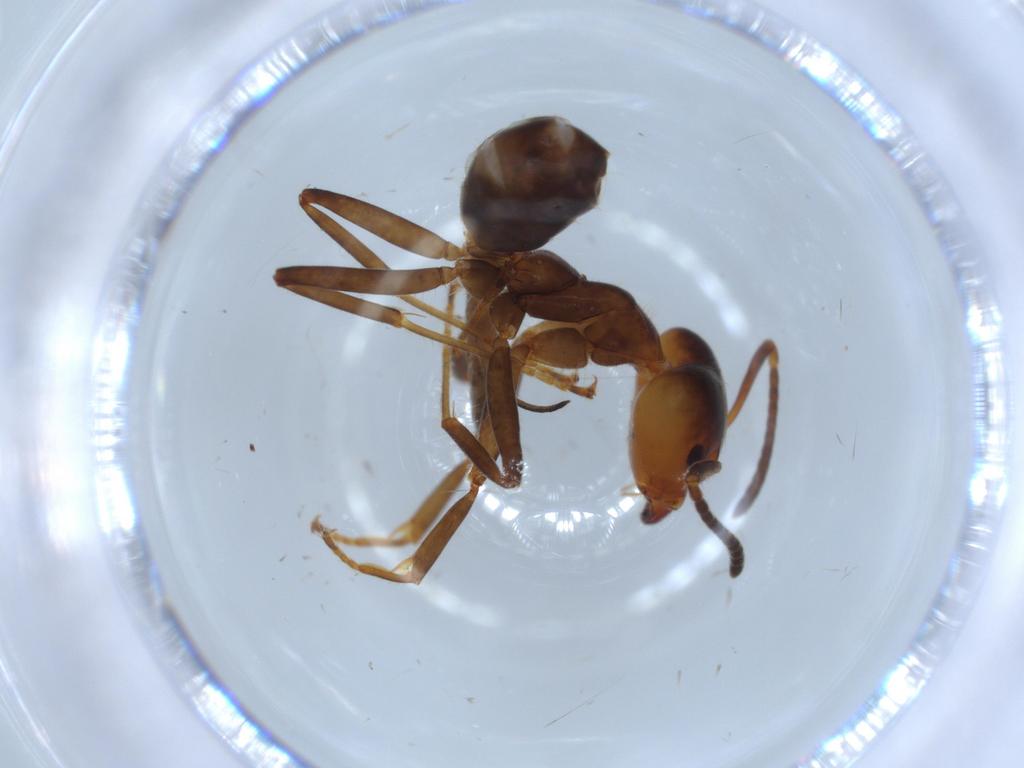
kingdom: Animalia
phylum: Arthropoda
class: Insecta
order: Hymenoptera
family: Formicidae
